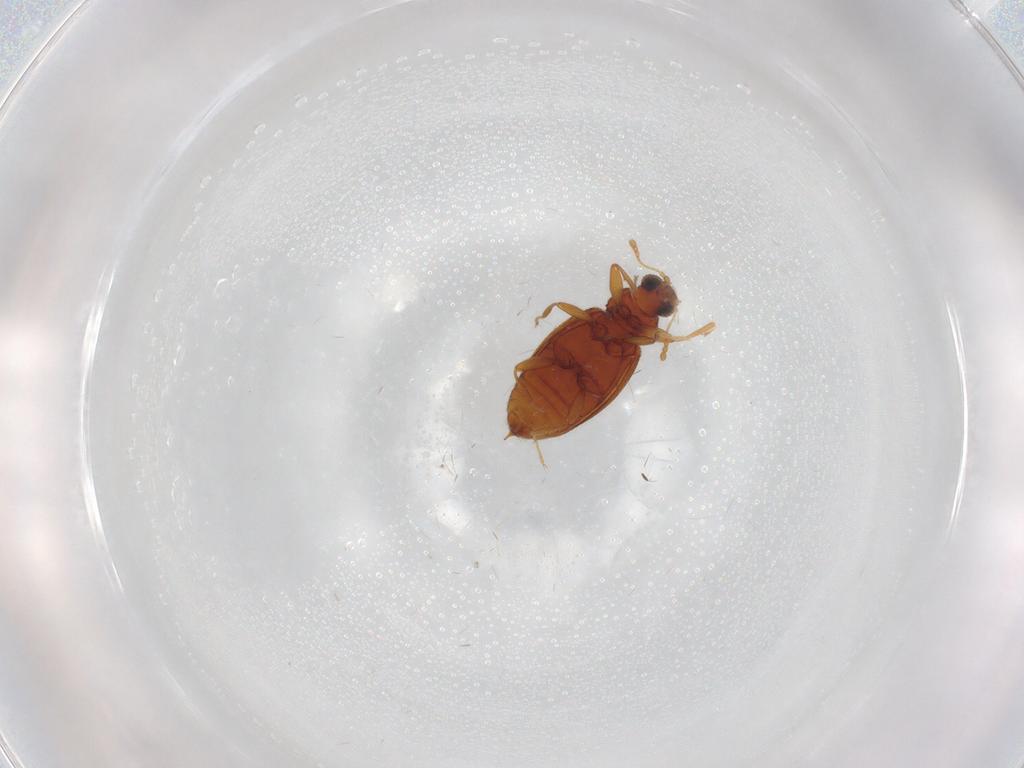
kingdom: Animalia
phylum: Arthropoda
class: Insecta
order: Coleoptera
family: Latridiidae
